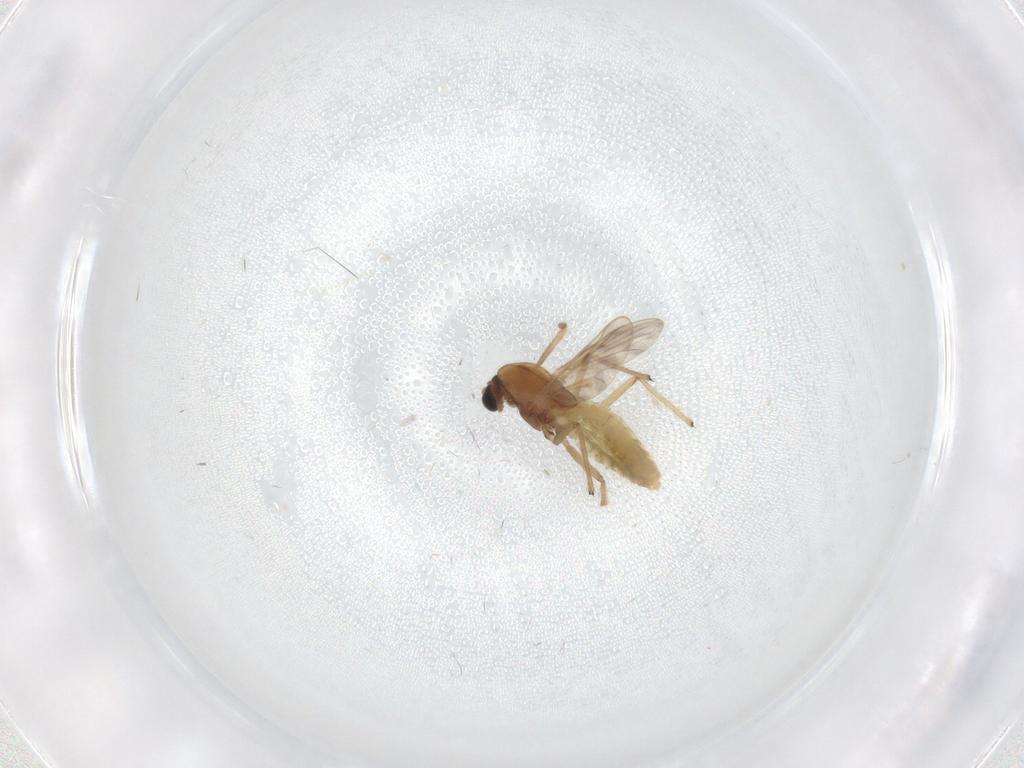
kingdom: Animalia
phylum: Arthropoda
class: Insecta
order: Diptera
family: Chironomidae
